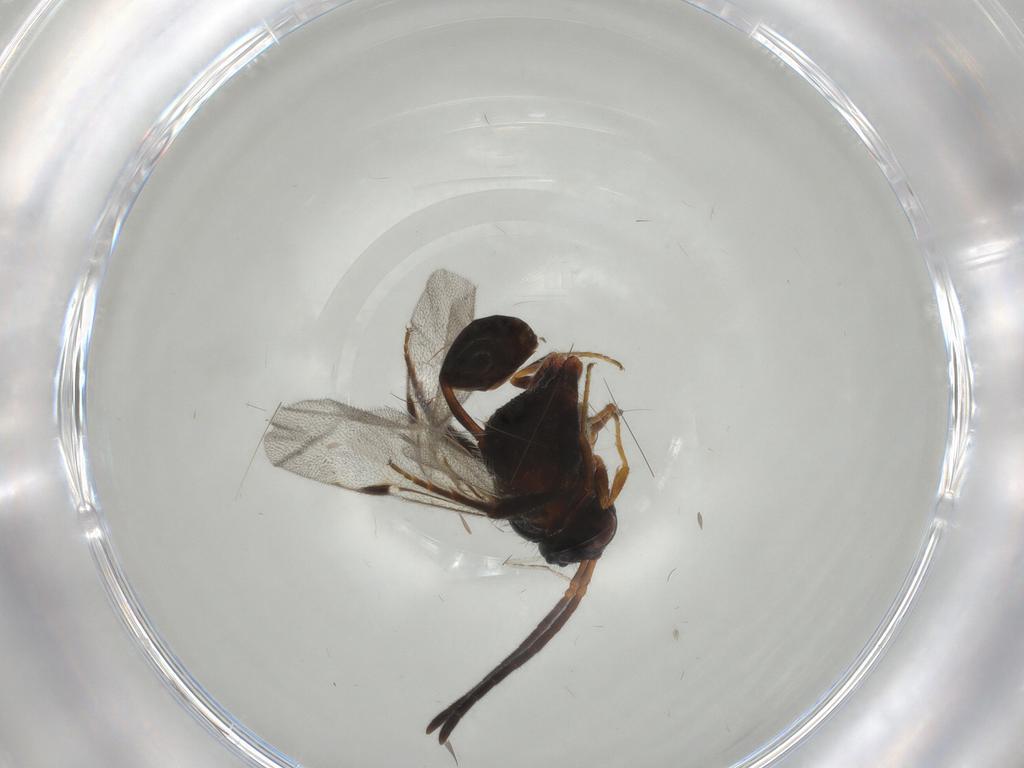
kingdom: Animalia
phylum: Arthropoda
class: Insecta
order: Hymenoptera
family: Evaniidae
